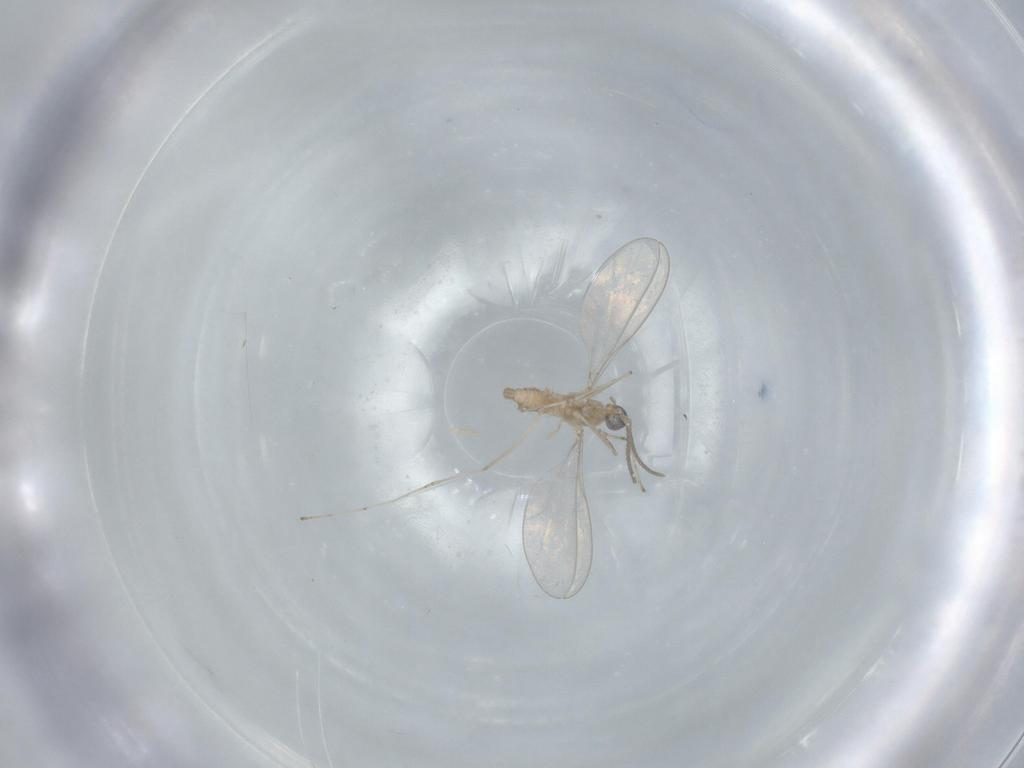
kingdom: Animalia
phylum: Arthropoda
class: Insecta
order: Diptera
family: Cecidomyiidae
